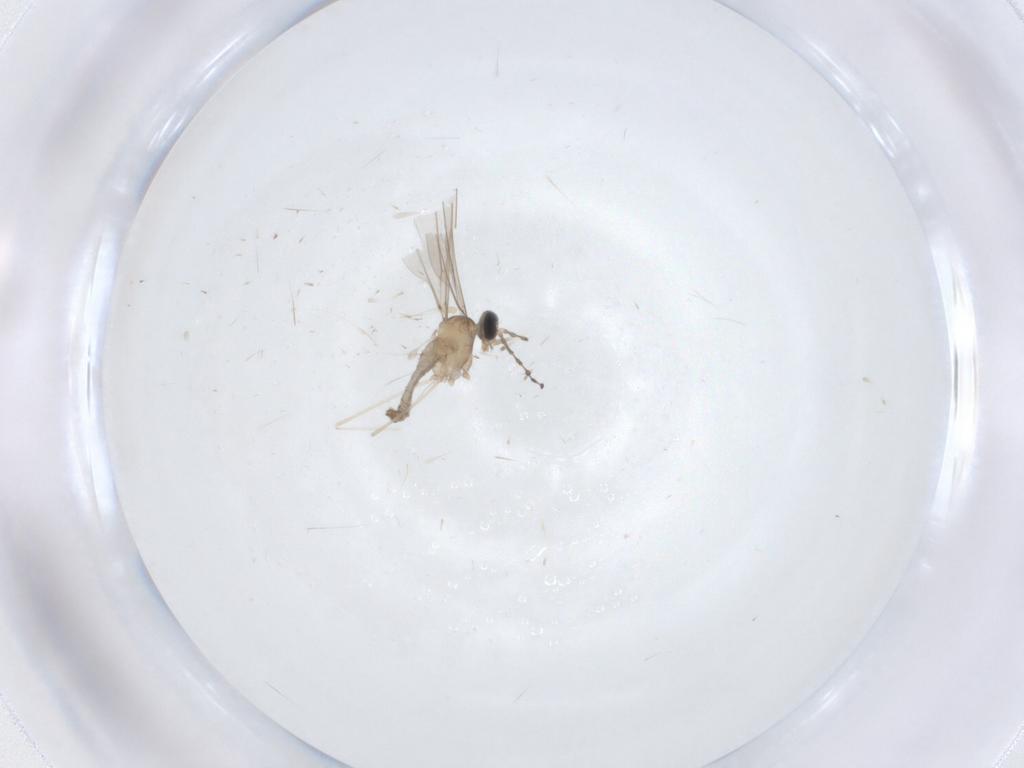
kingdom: Animalia
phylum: Arthropoda
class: Insecta
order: Diptera
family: Cecidomyiidae
